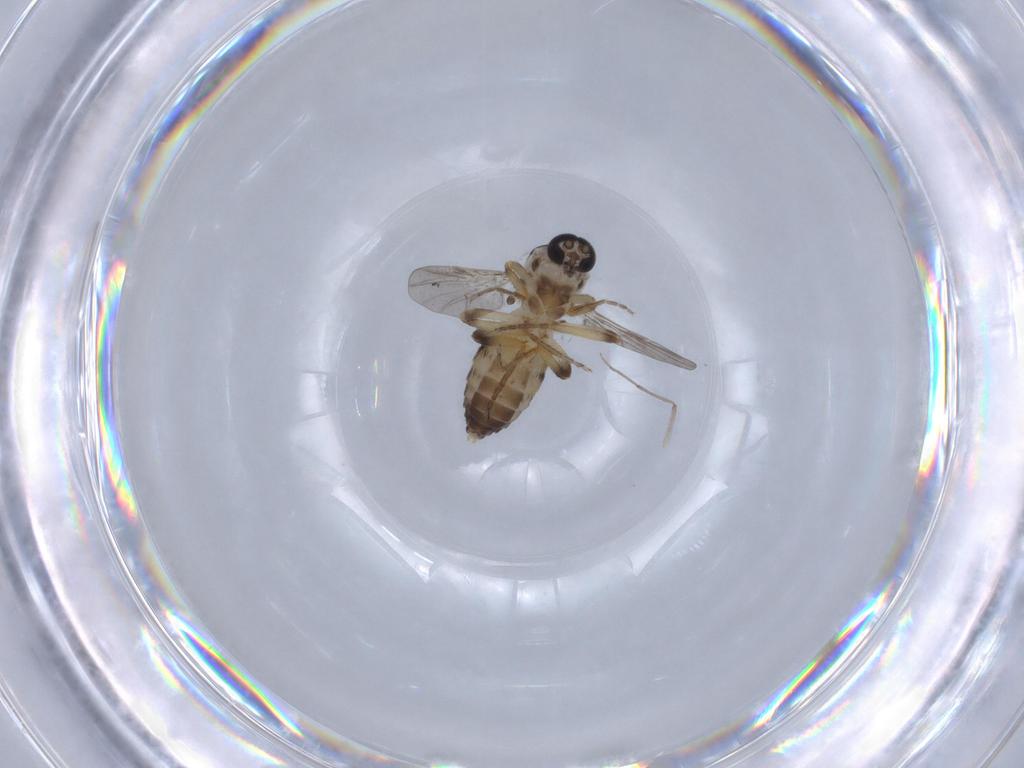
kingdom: Animalia
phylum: Arthropoda
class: Insecta
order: Diptera
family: Ceratopogonidae
